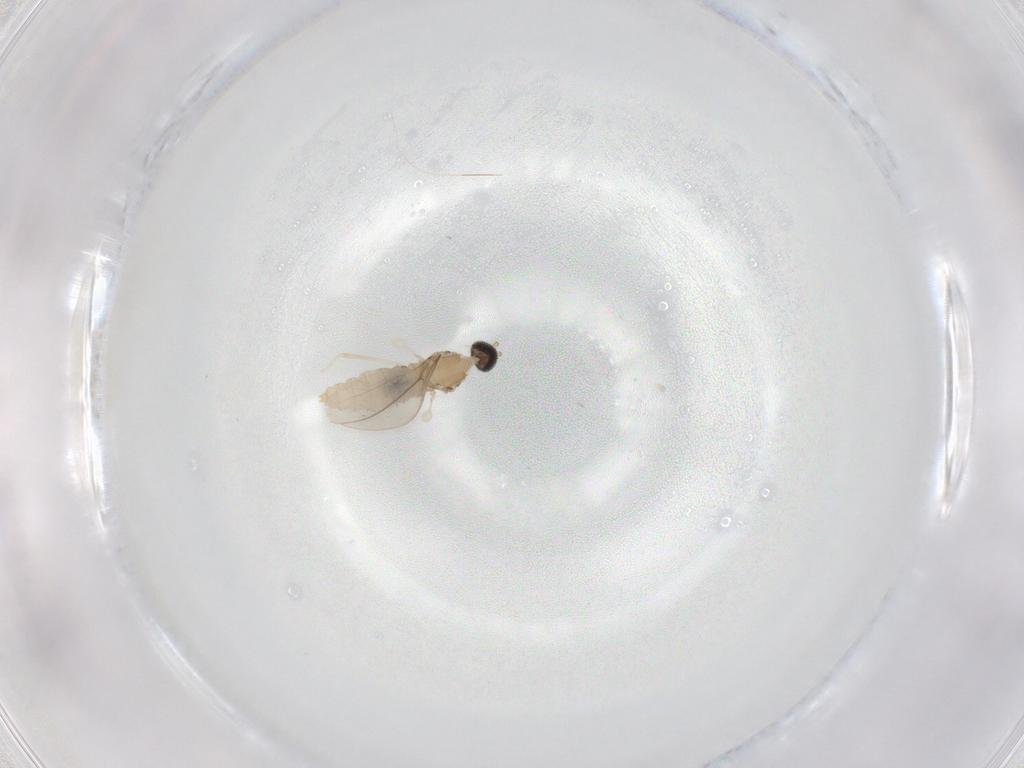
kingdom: Animalia
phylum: Arthropoda
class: Insecta
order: Diptera
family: Cecidomyiidae
